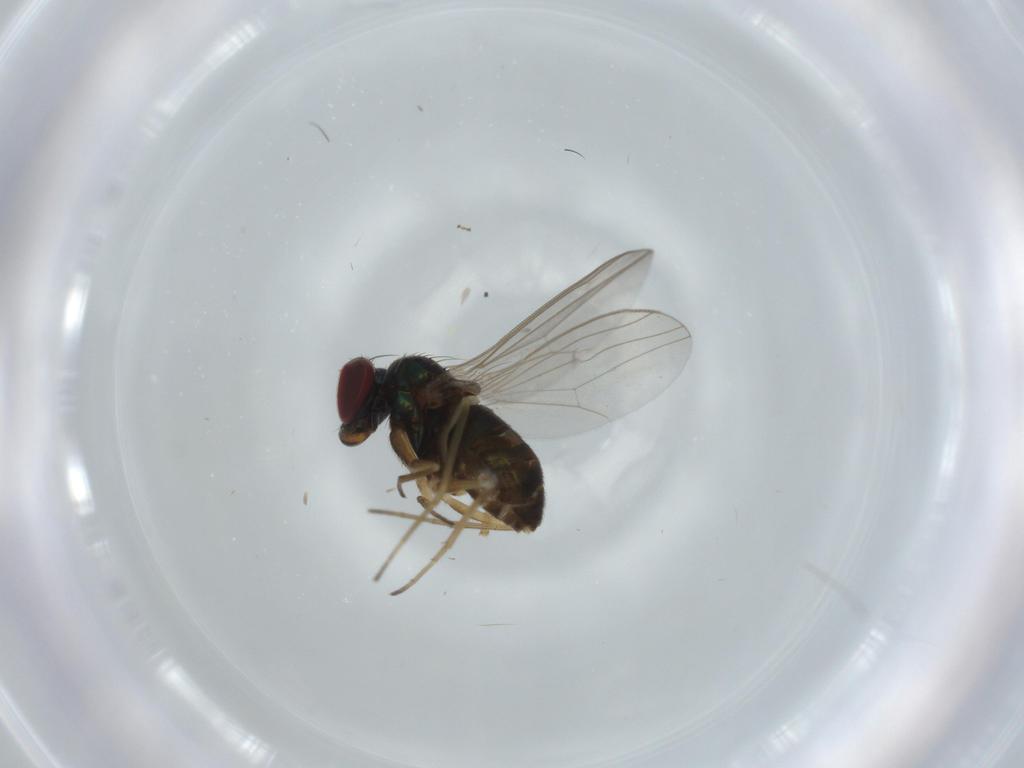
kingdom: Animalia
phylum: Arthropoda
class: Insecta
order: Diptera
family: Dolichopodidae
